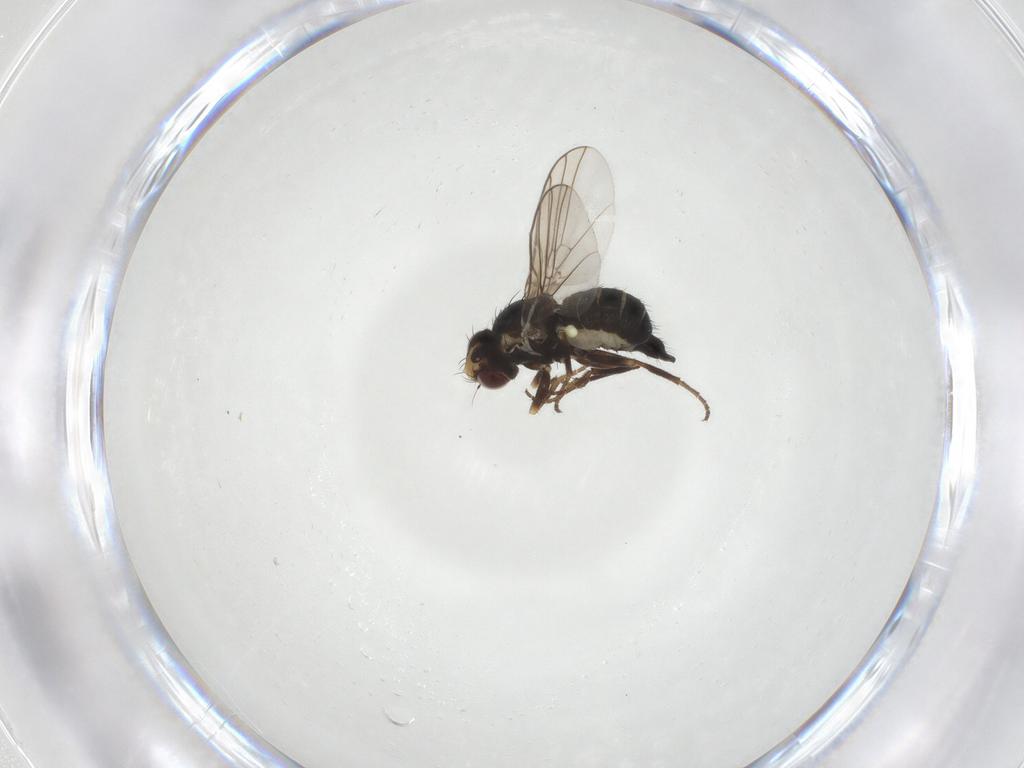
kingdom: Animalia
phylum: Arthropoda
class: Insecta
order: Diptera
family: Agromyzidae
